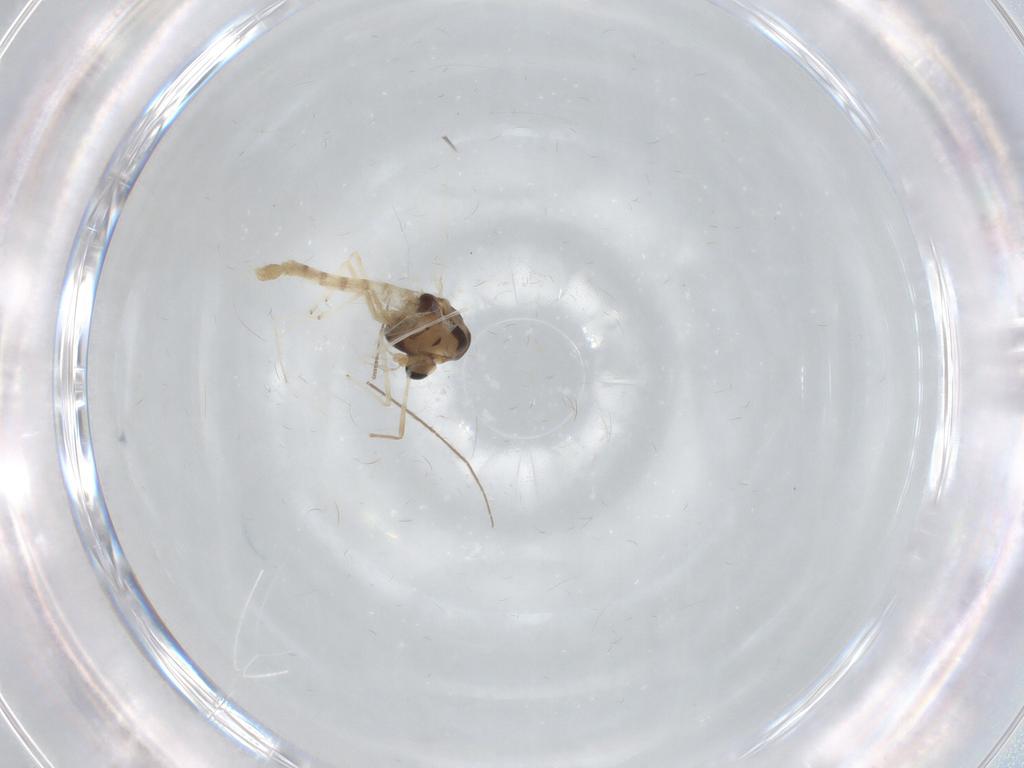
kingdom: Animalia
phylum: Arthropoda
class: Insecta
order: Diptera
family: Chironomidae
